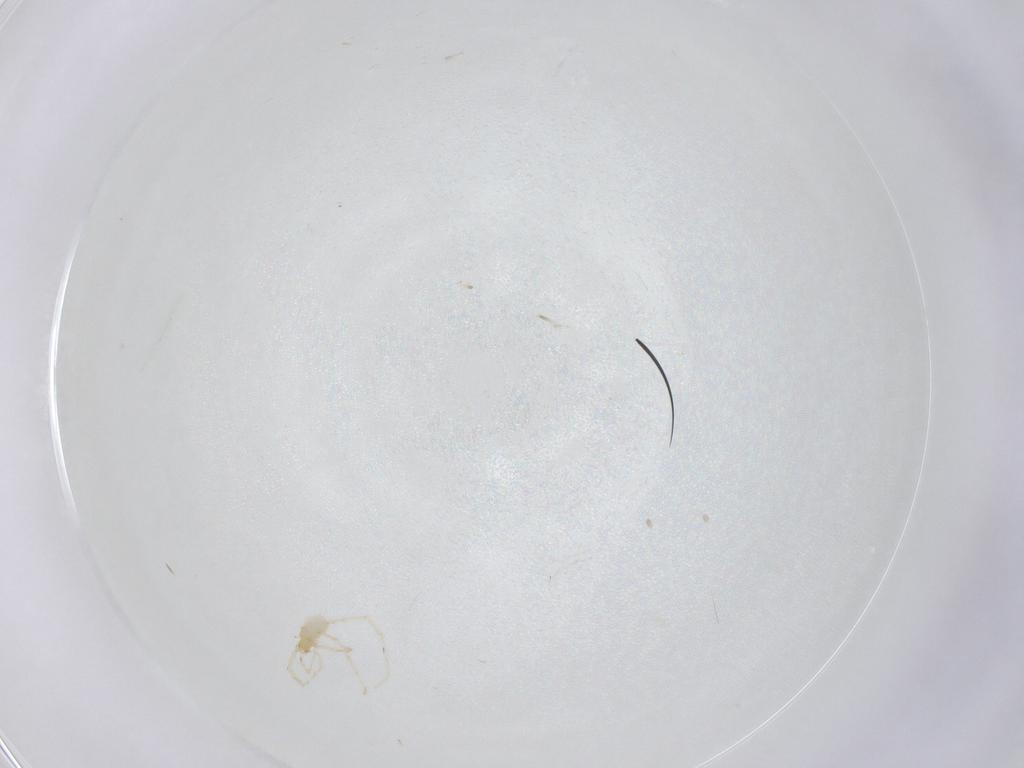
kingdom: Animalia
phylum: Arthropoda
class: Arachnida
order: Trombidiformes
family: Erythraeidae
